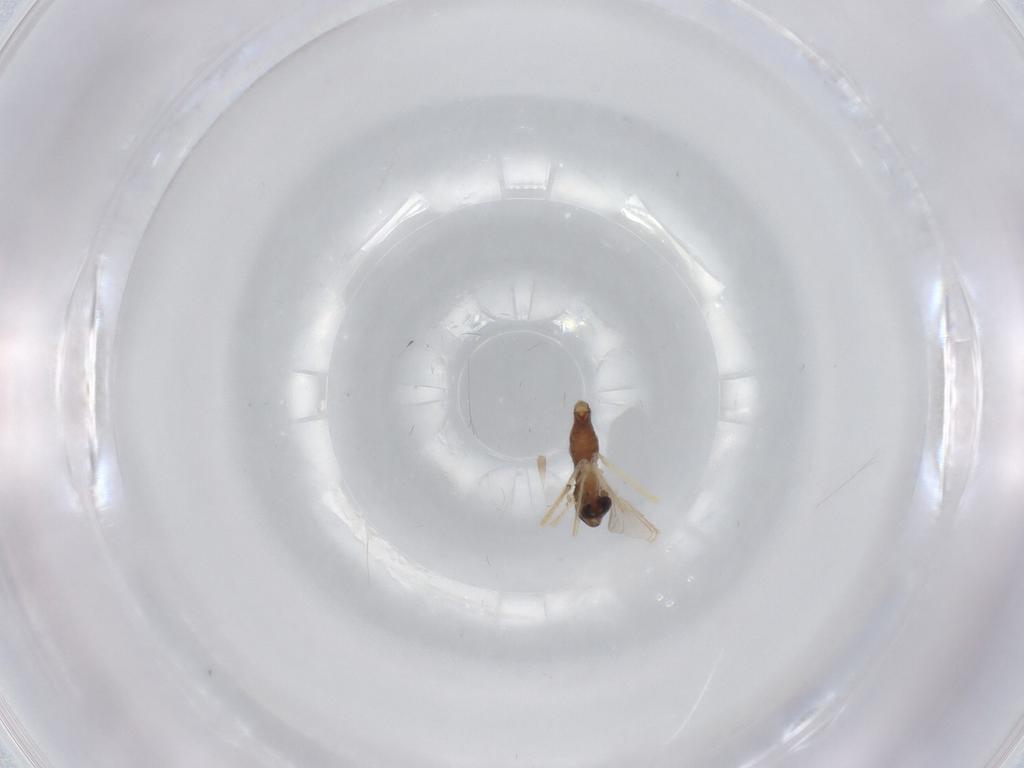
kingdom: Animalia
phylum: Arthropoda
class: Insecta
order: Diptera
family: Chironomidae
